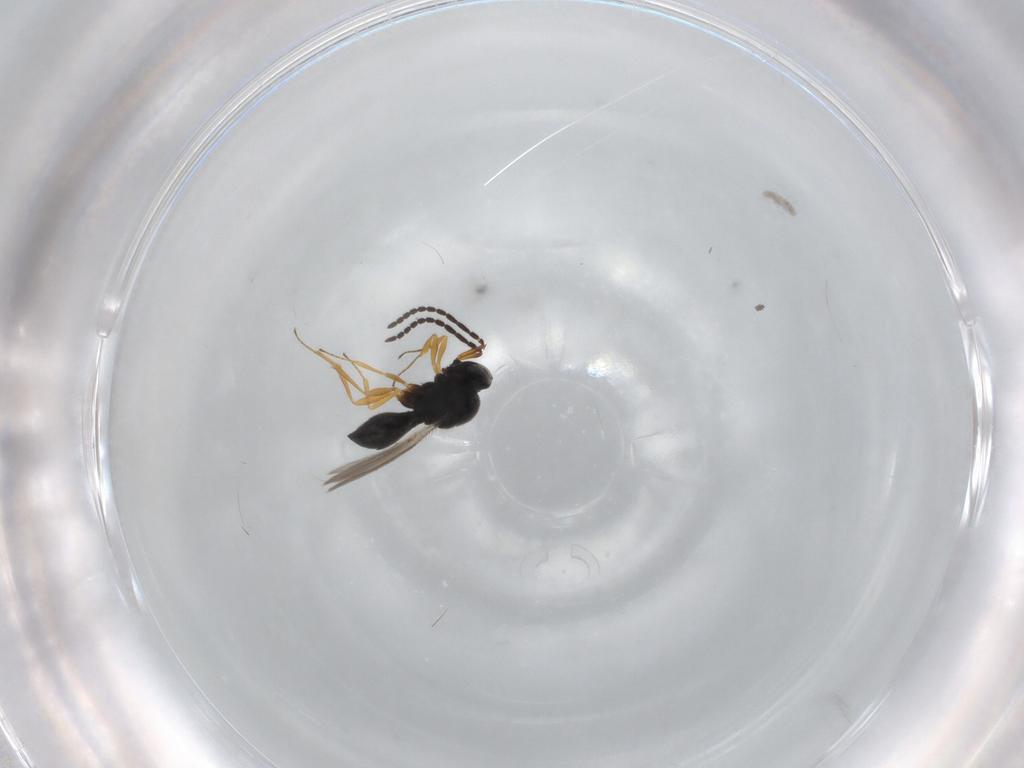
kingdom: Animalia
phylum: Arthropoda
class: Insecta
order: Hymenoptera
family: Scelionidae
